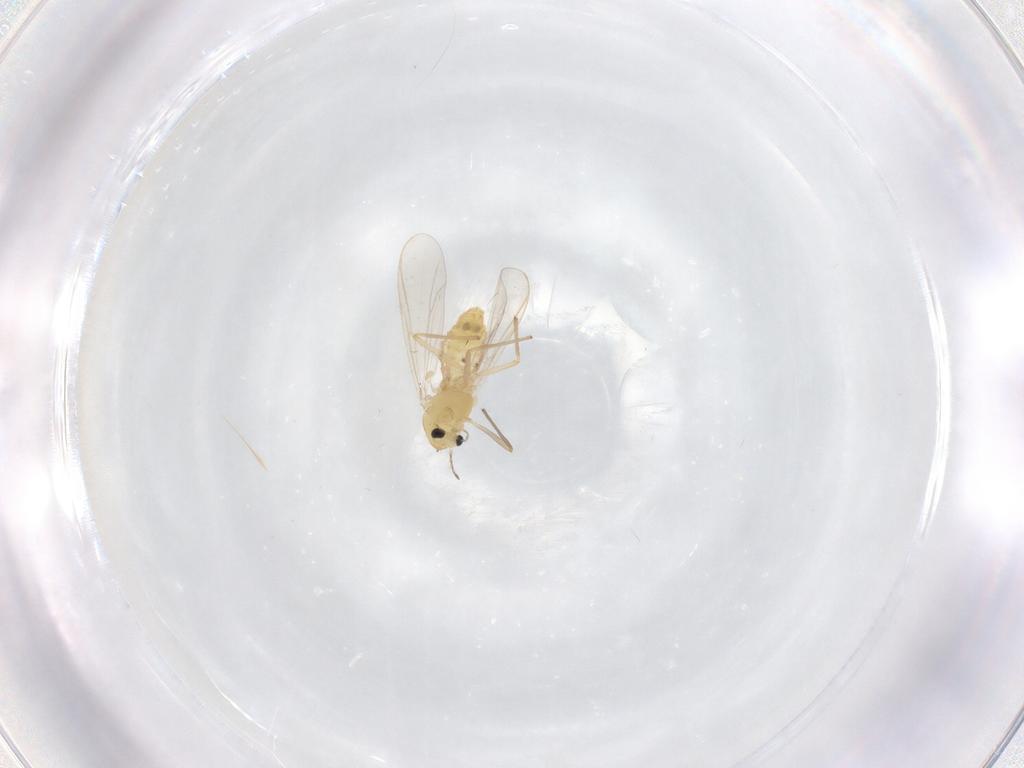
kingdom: Animalia
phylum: Arthropoda
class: Insecta
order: Diptera
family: Chironomidae
